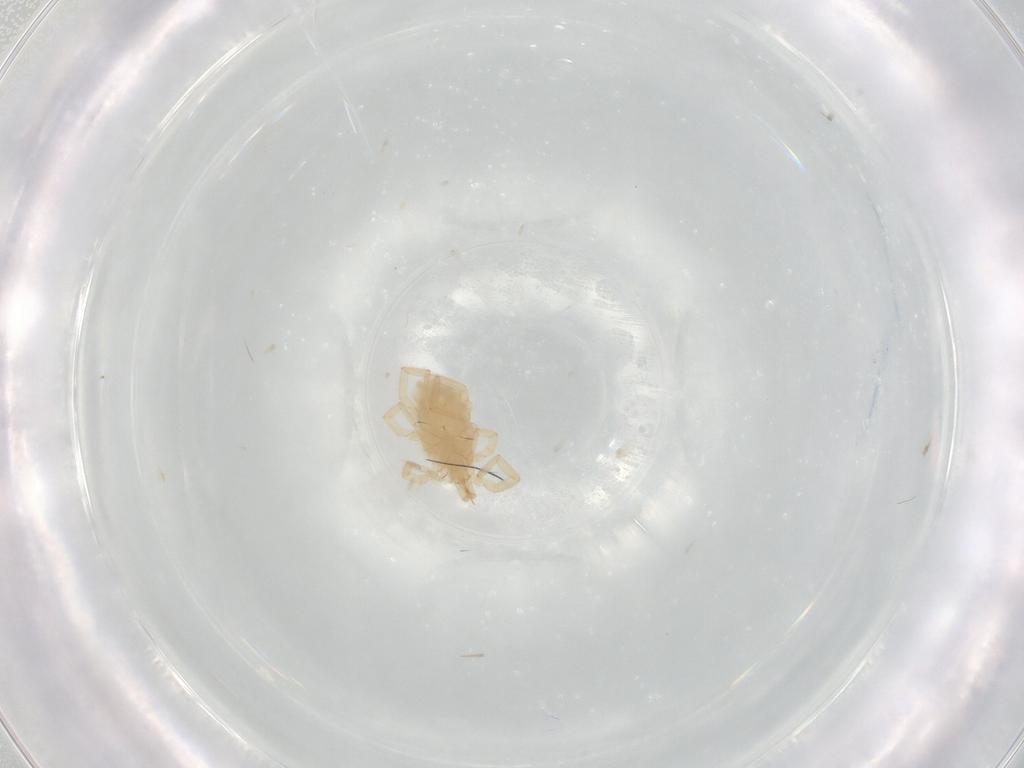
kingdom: Animalia
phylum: Arthropoda
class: Arachnida
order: Trombidiformes
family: Erythraeidae
